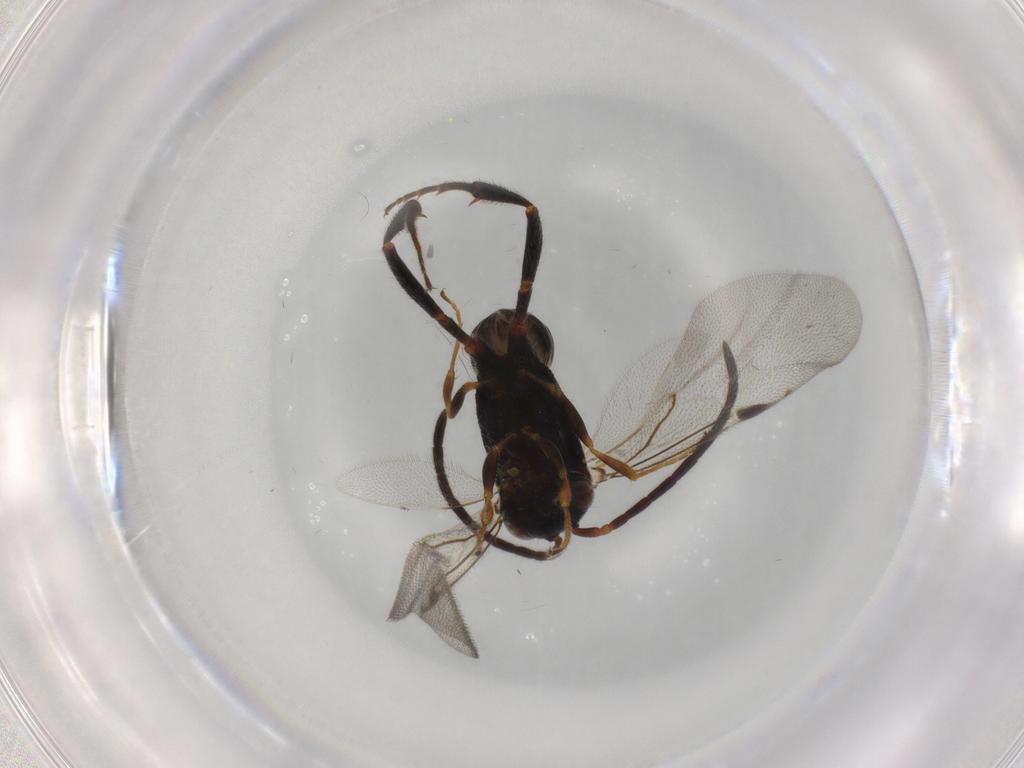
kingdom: Animalia
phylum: Arthropoda
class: Insecta
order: Hymenoptera
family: Evaniidae
